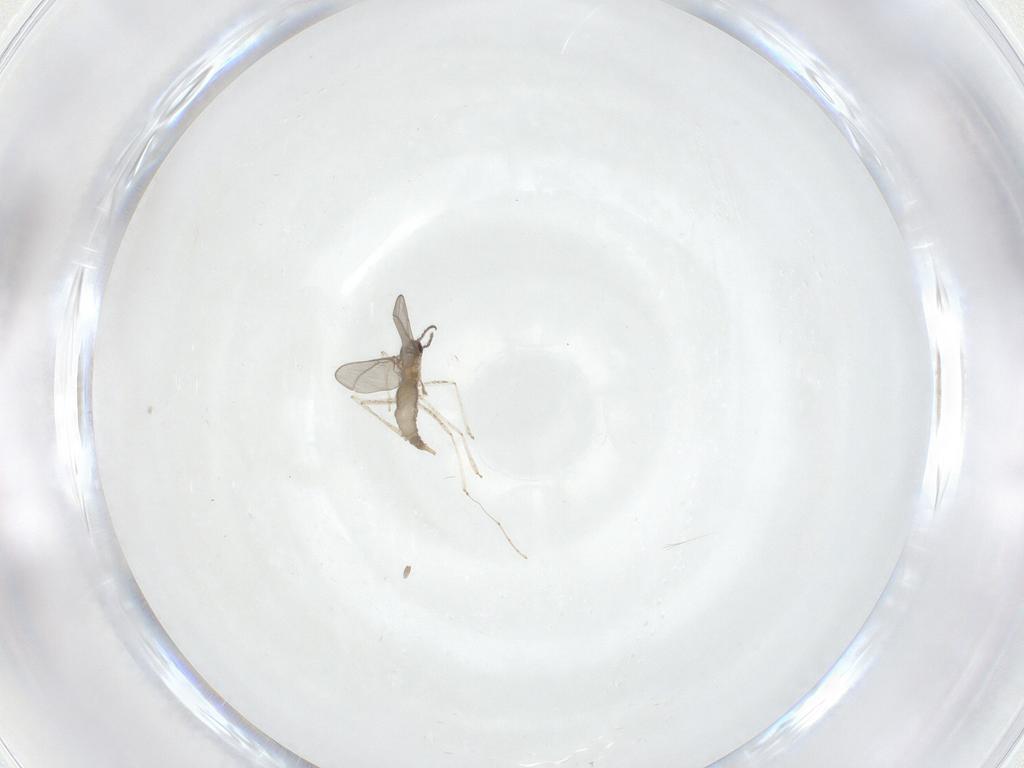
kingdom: Animalia
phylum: Arthropoda
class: Insecta
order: Diptera
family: Cecidomyiidae
